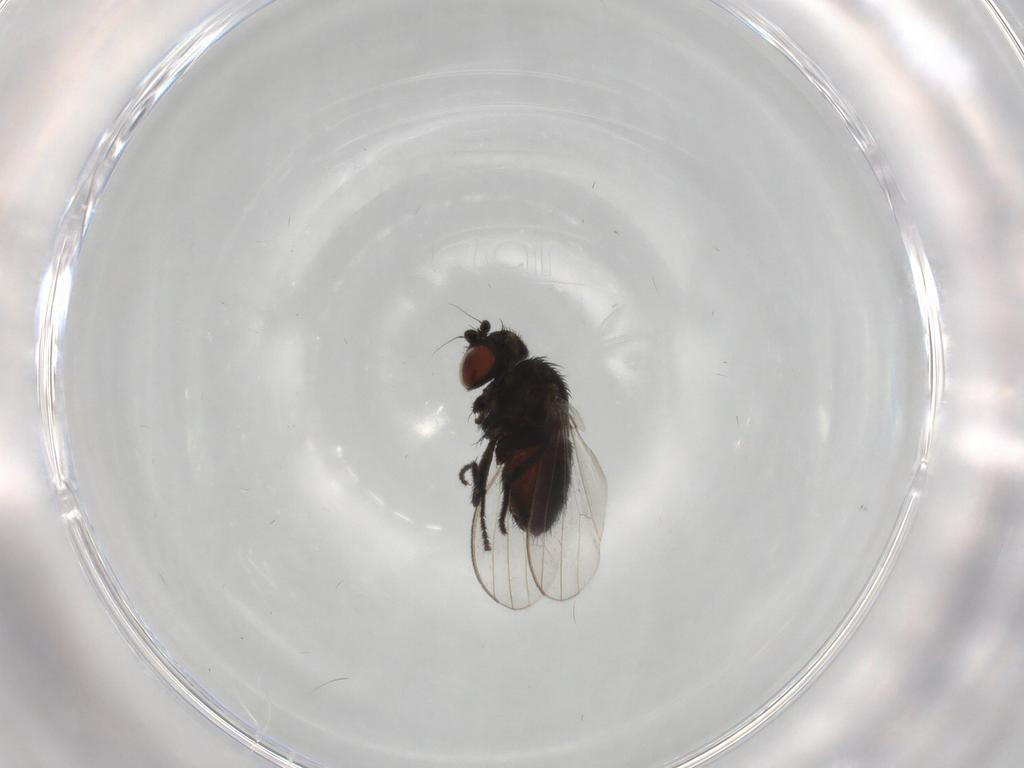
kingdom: Animalia
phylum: Arthropoda
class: Insecta
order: Diptera
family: Milichiidae
